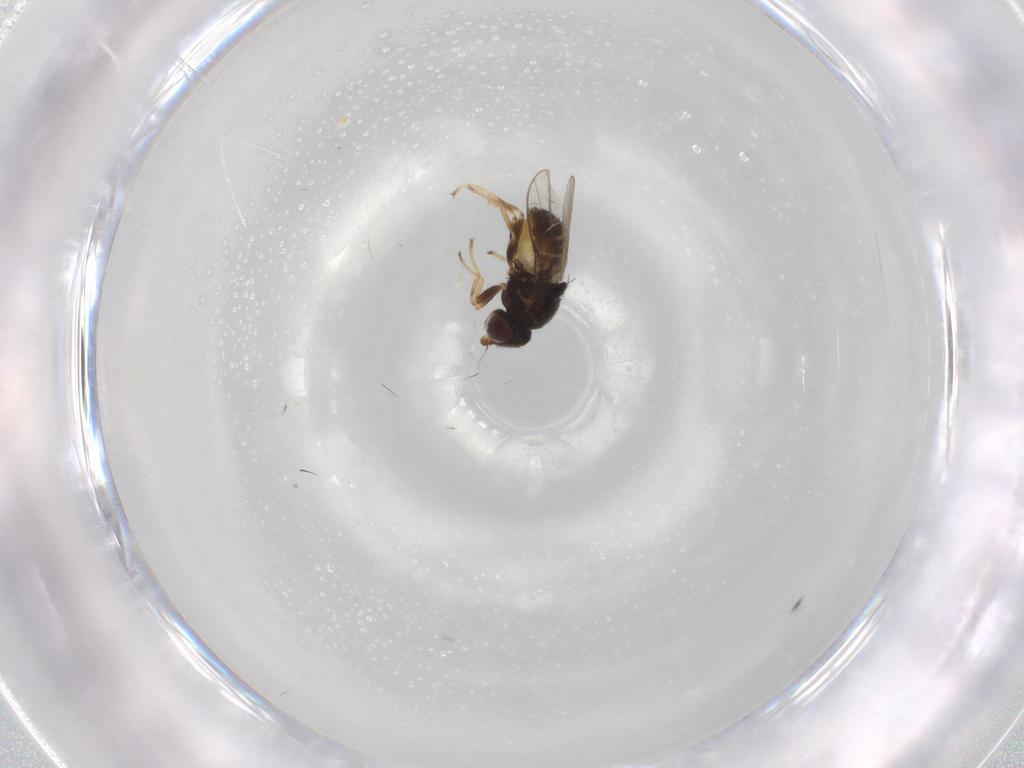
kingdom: Animalia
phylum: Arthropoda
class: Insecta
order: Diptera
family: Chloropidae
